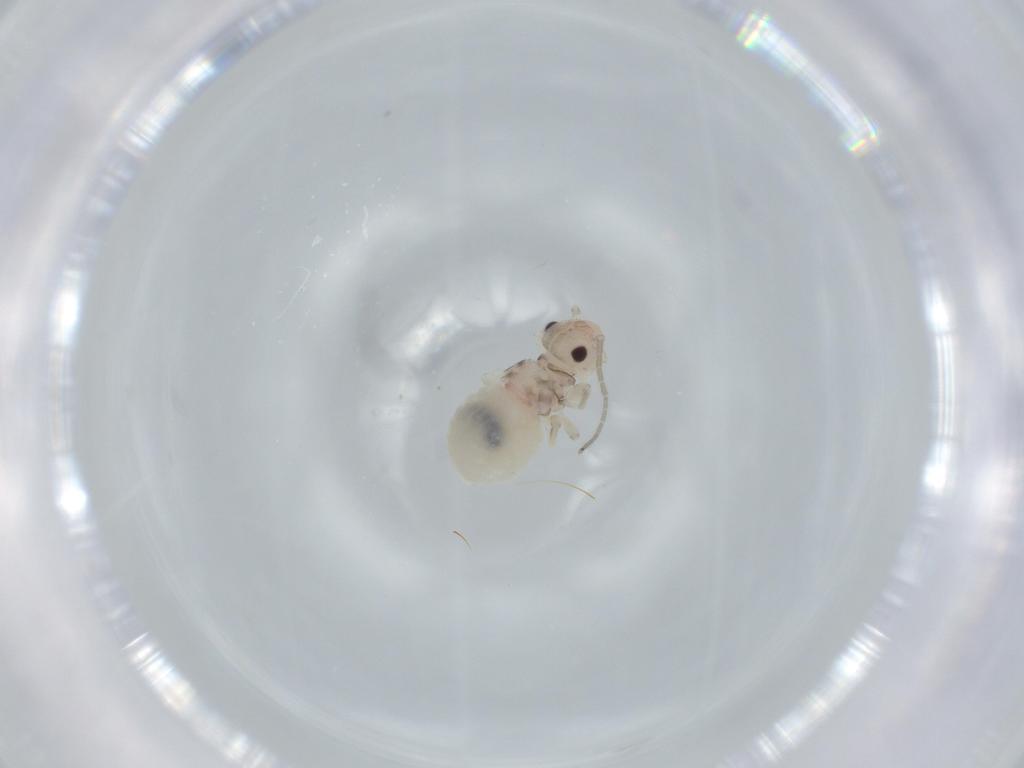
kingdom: Animalia
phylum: Arthropoda
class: Insecta
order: Psocodea
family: Amphipsocidae
